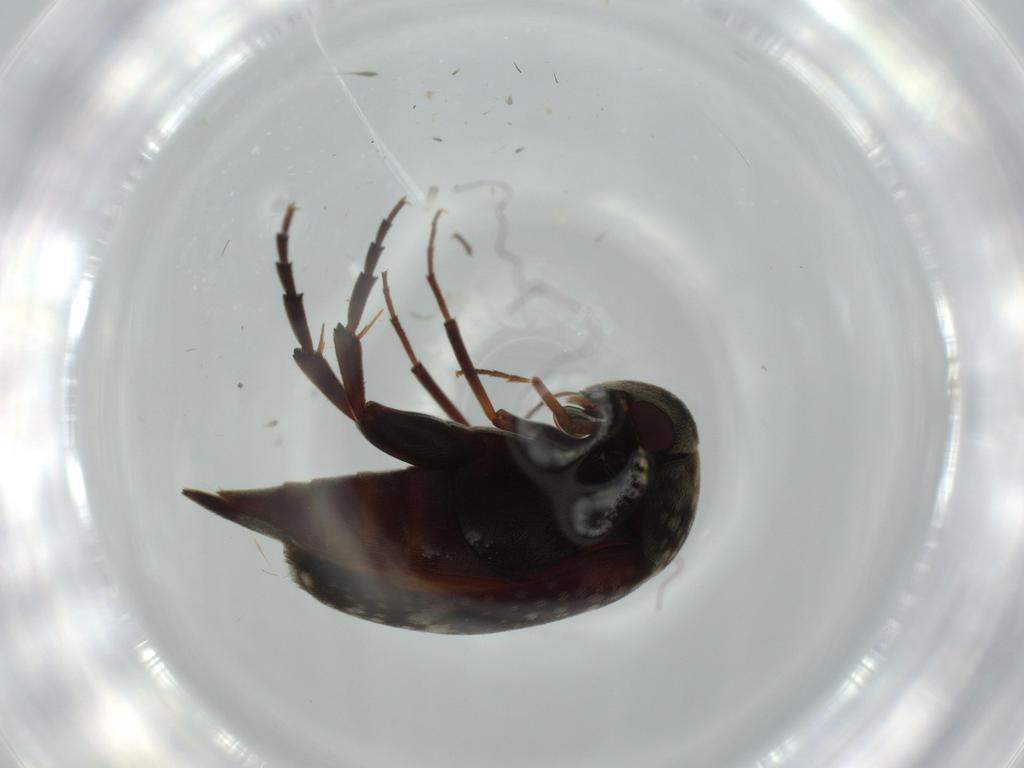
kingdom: Animalia
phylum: Arthropoda
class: Insecta
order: Coleoptera
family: Mordellidae
